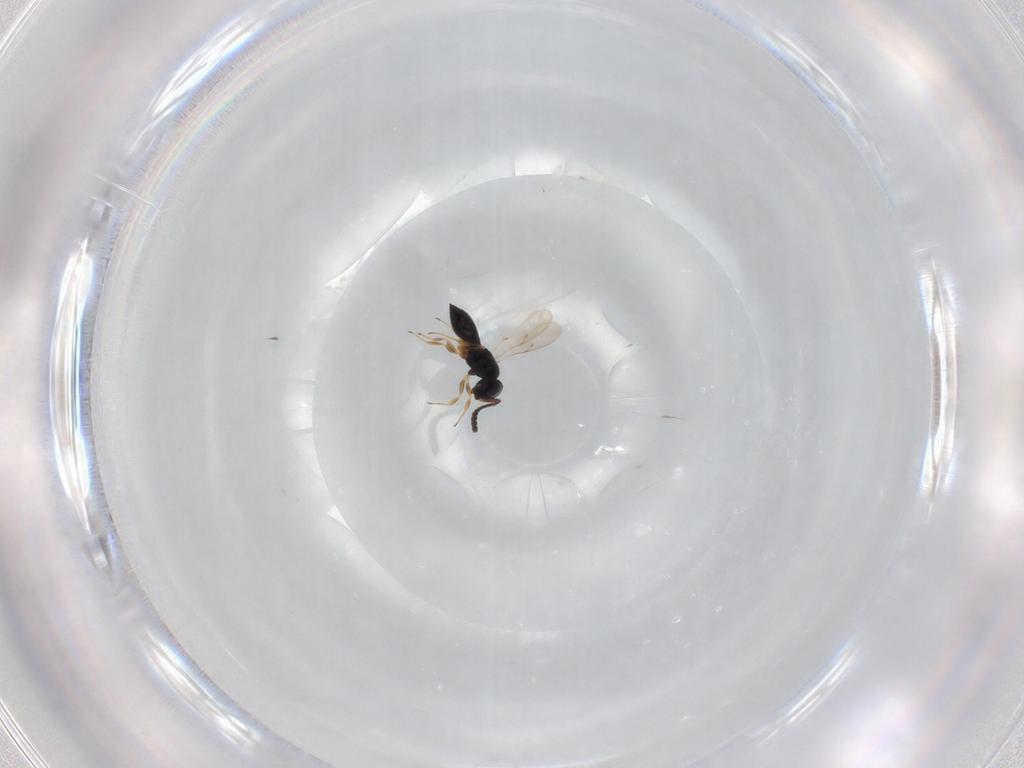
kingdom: Animalia
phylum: Arthropoda
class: Insecta
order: Hymenoptera
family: Scelionidae
